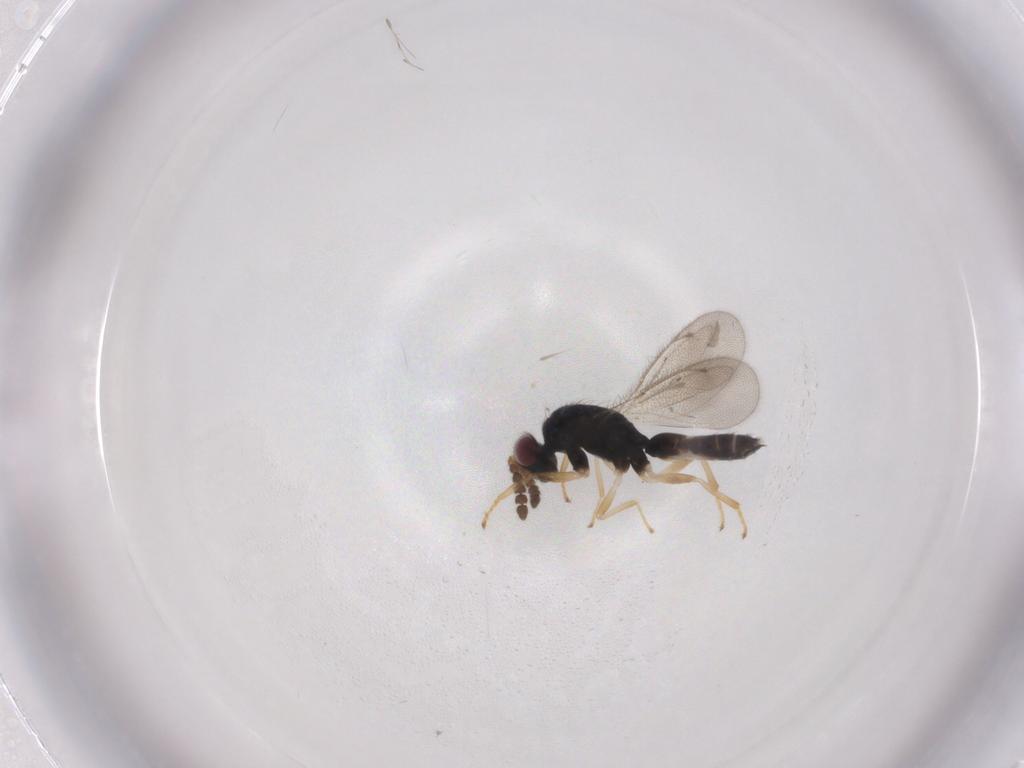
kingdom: Animalia
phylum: Arthropoda
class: Insecta
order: Hymenoptera
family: Eulophidae
